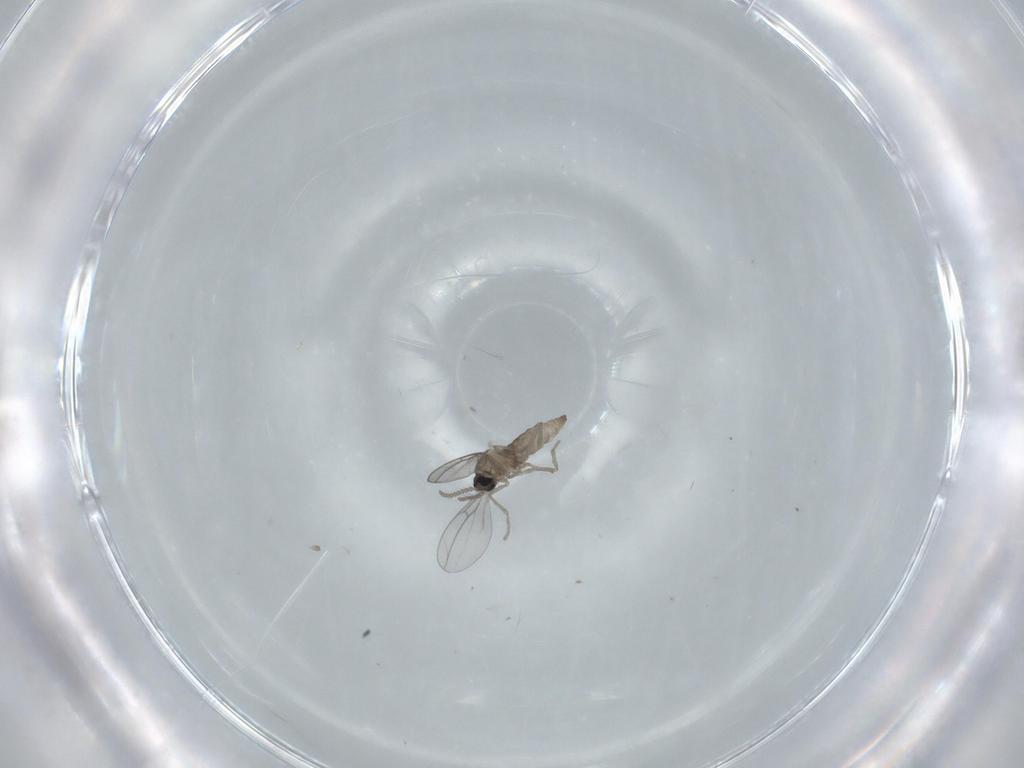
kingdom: Animalia
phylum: Arthropoda
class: Insecta
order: Diptera
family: Cecidomyiidae
